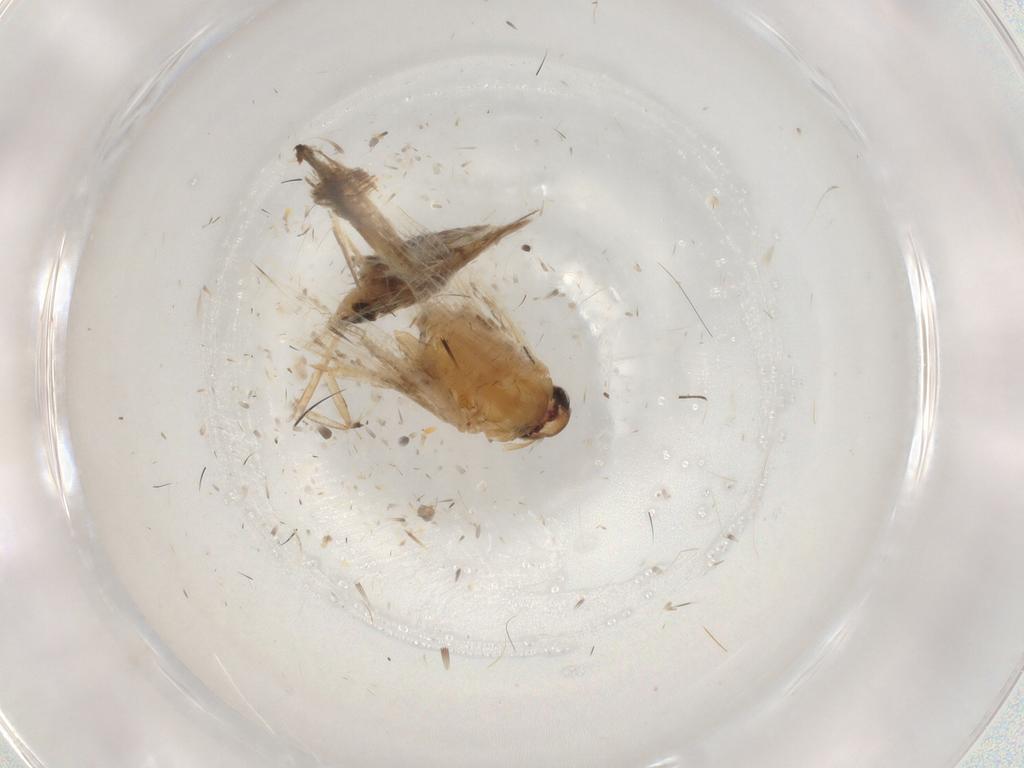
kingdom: Animalia
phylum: Arthropoda
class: Insecta
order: Lepidoptera
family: Cosmopterigidae
